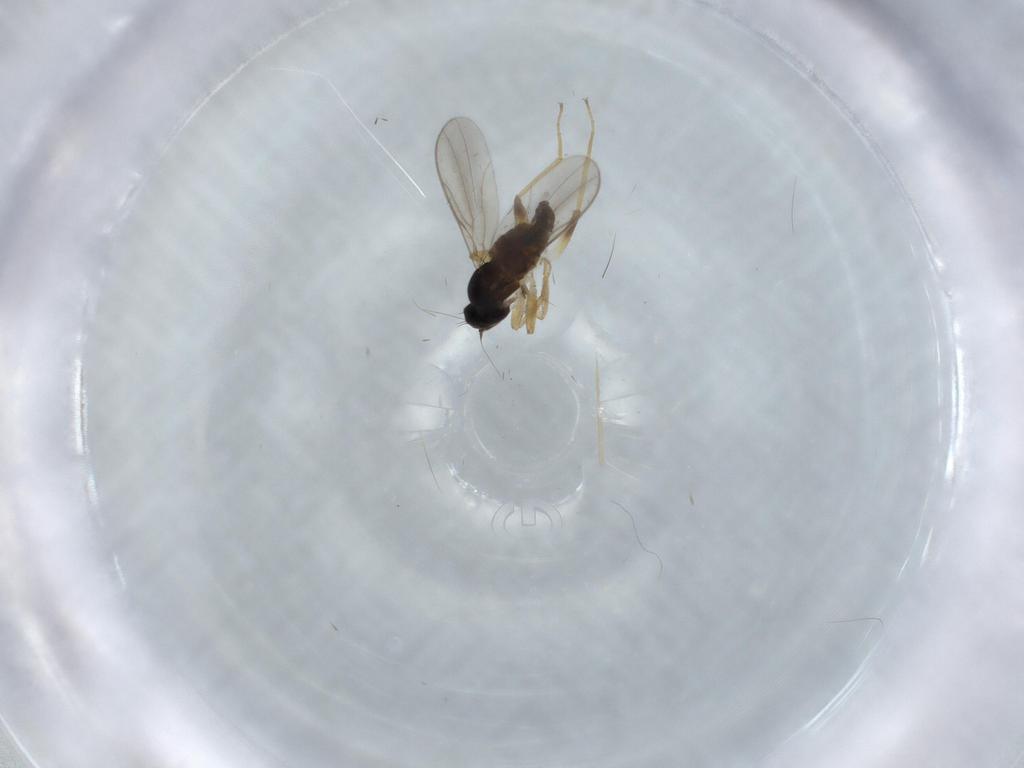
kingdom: Animalia
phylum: Arthropoda
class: Insecta
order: Diptera
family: Hybotidae
